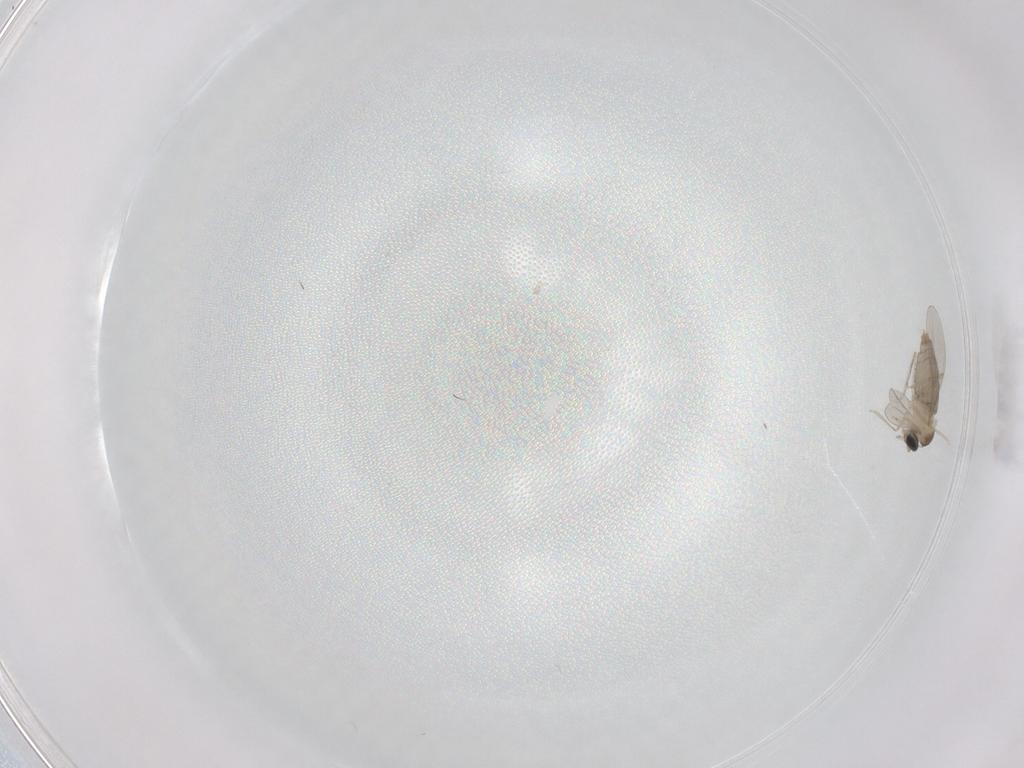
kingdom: Animalia
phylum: Arthropoda
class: Insecta
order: Diptera
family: Cecidomyiidae
